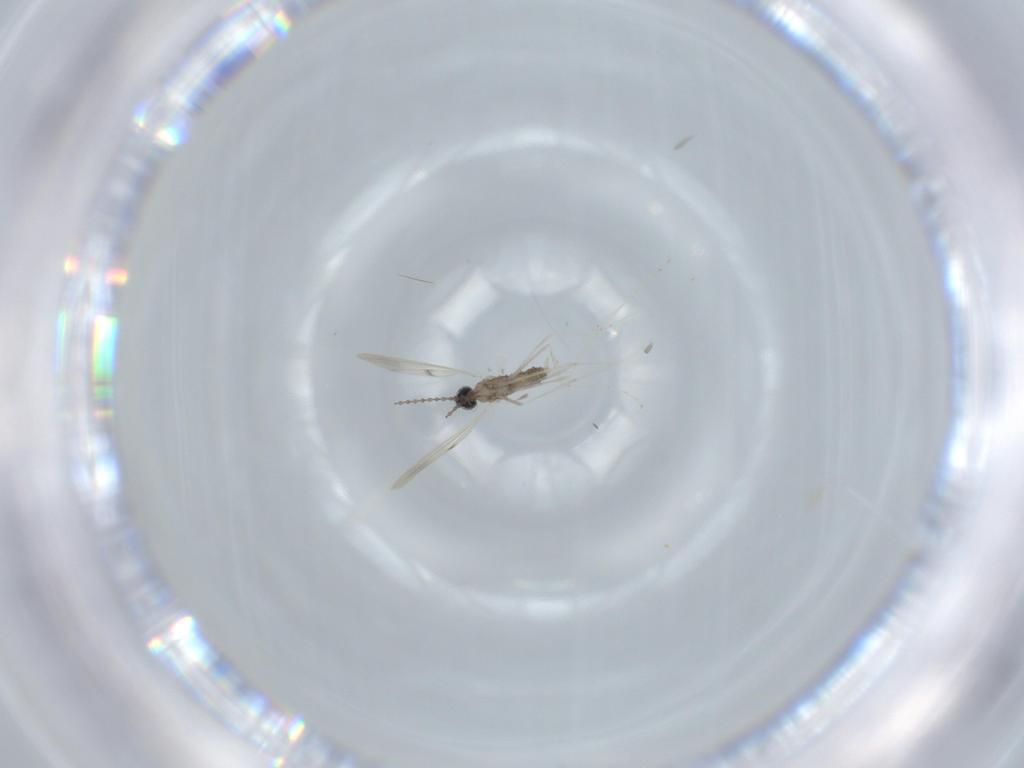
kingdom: Animalia
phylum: Arthropoda
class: Insecta
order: Diptera
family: Cecidomyiidae
